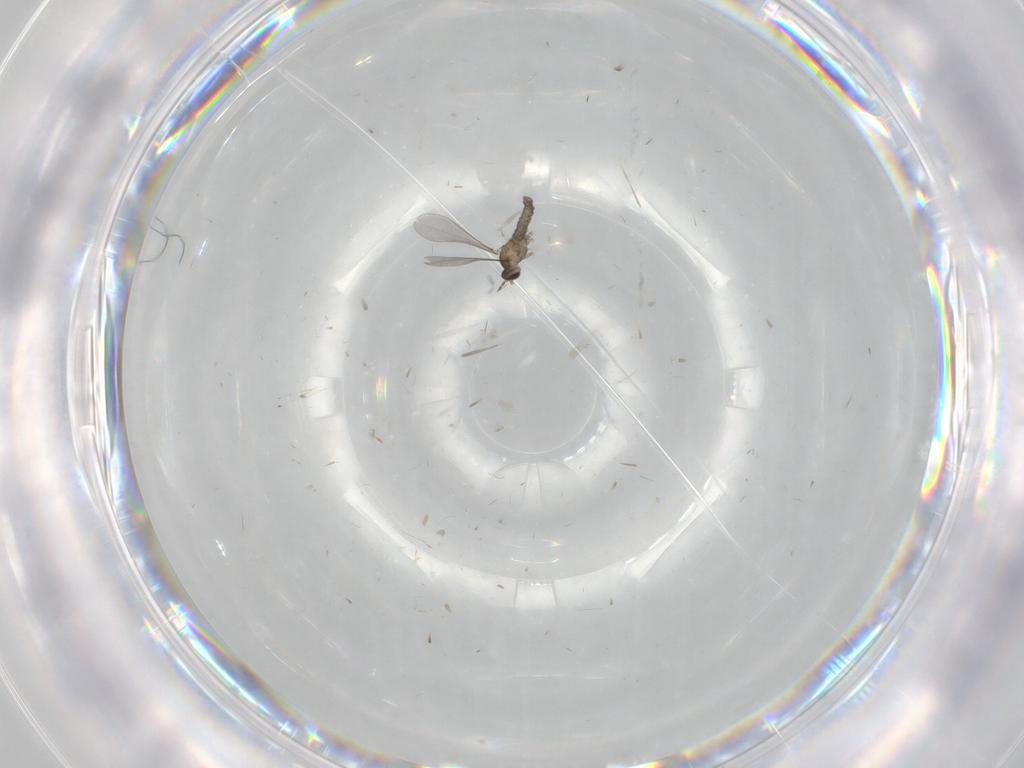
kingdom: Animalia
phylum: Arthropoda
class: Insecta
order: Diptera
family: Cecidomyiidae
